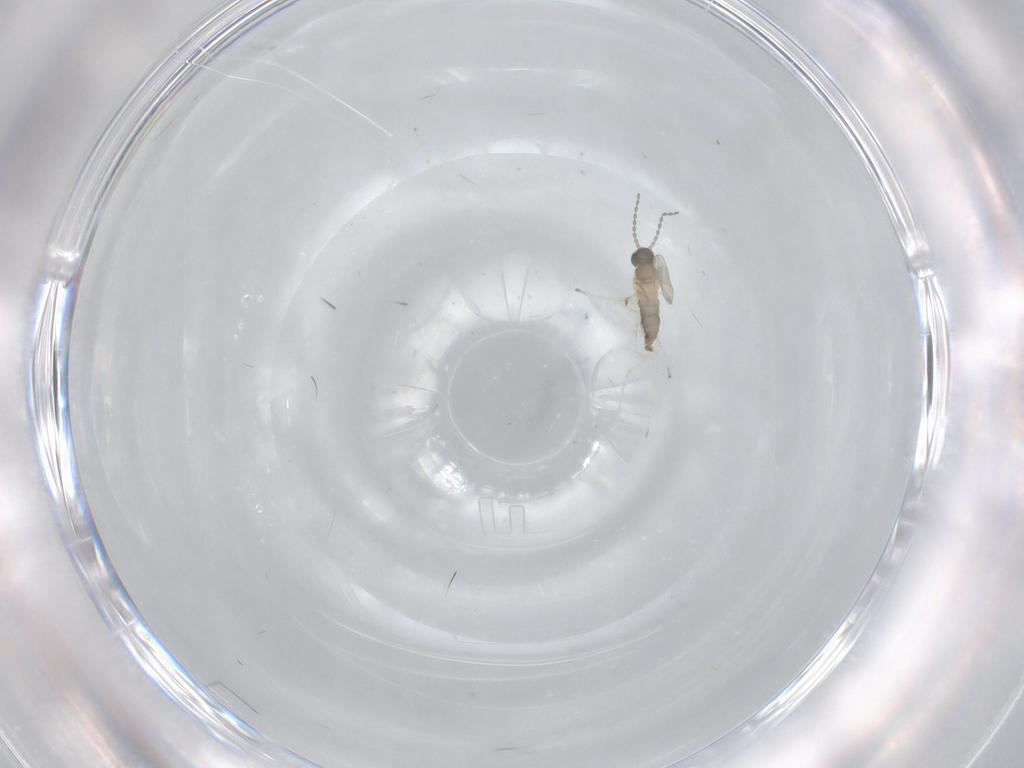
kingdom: Animalia
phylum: Arthropoda
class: Insecta
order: Diptera
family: Cecidomyiidae
